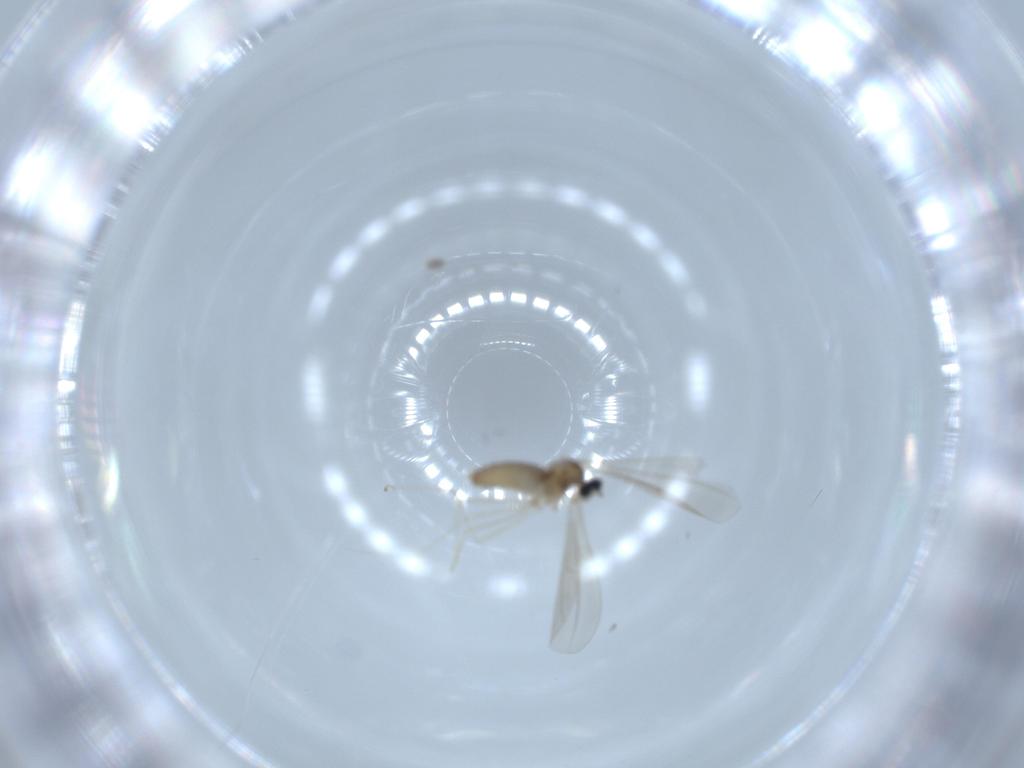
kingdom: Animalia
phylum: Arthropoda
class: Insecta
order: Diptera
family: Cecidomyiidae
